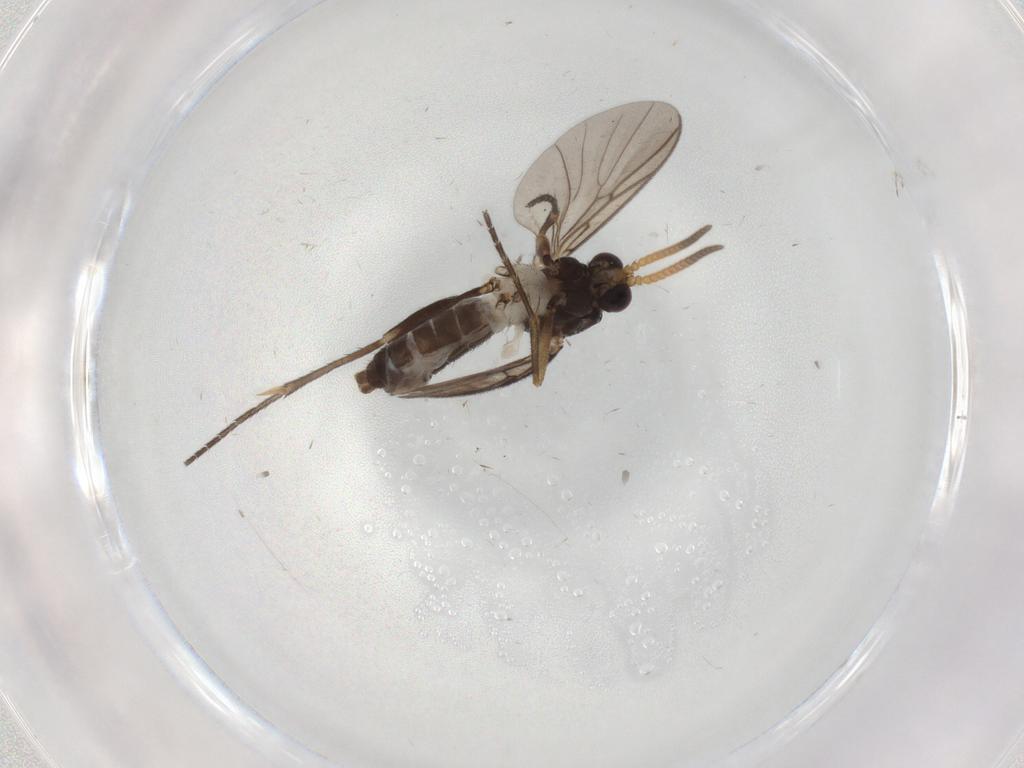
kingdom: Animalia
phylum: Arthropoda
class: Insecta
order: Diptera
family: Mycetophilidae
